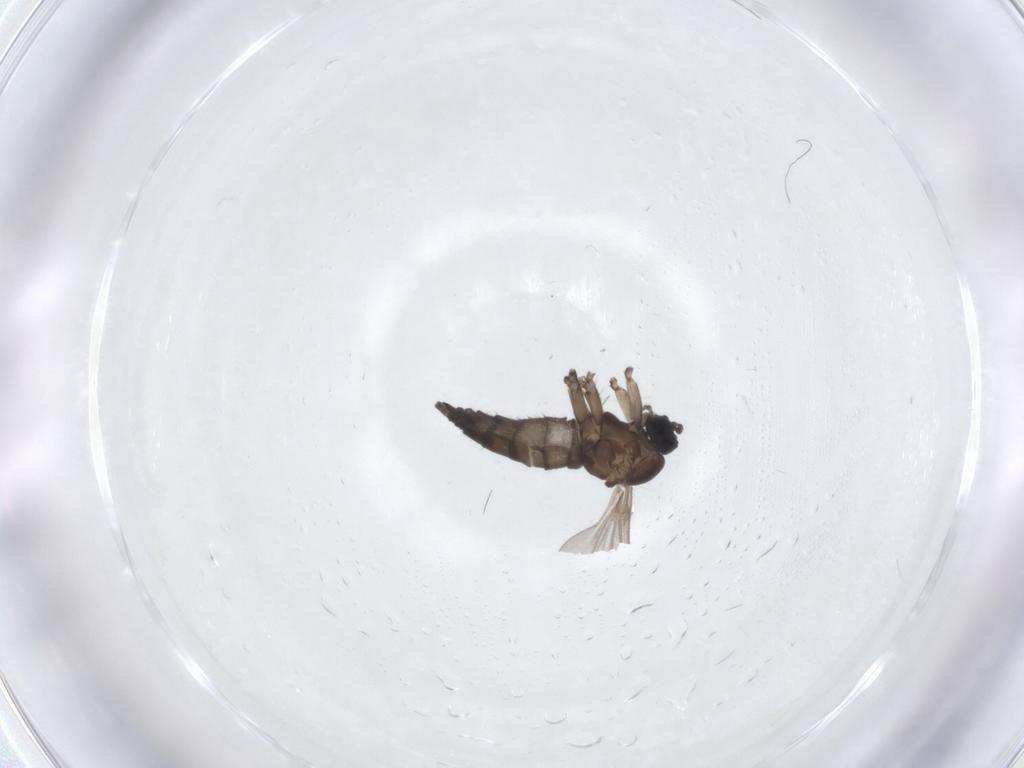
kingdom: Animalia
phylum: Arthropoda
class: Insecta
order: Diptera
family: Sciaridae
